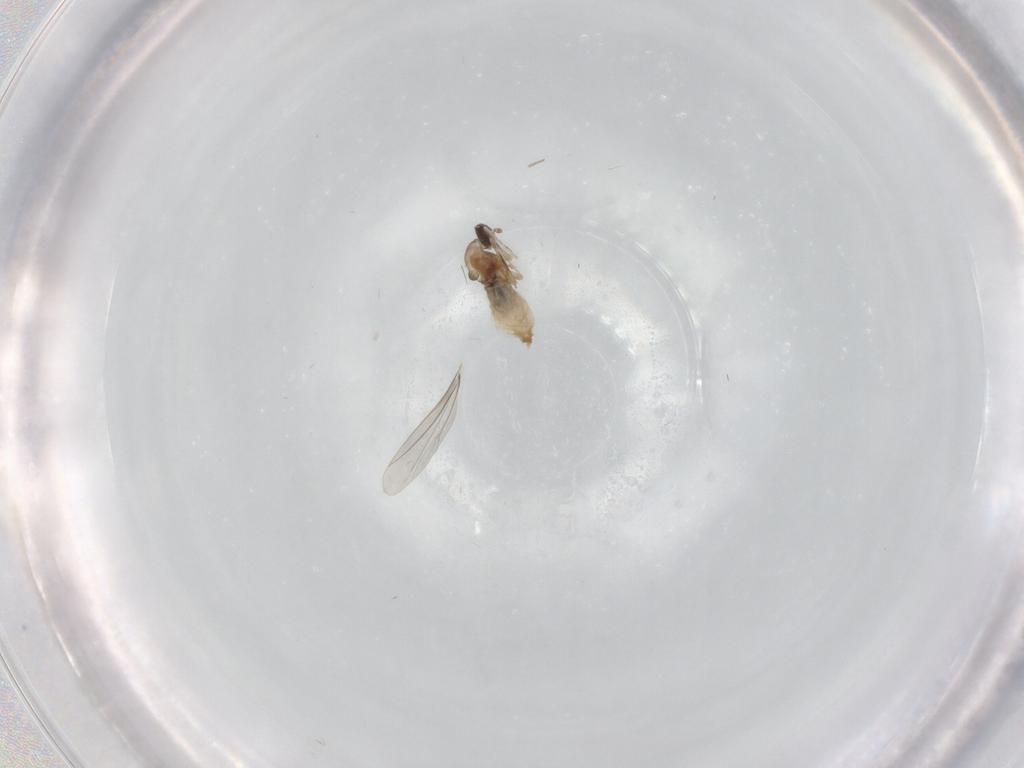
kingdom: Animalia
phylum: Arthropoda
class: Insecta
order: Diptera
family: Cecidomyiidae
